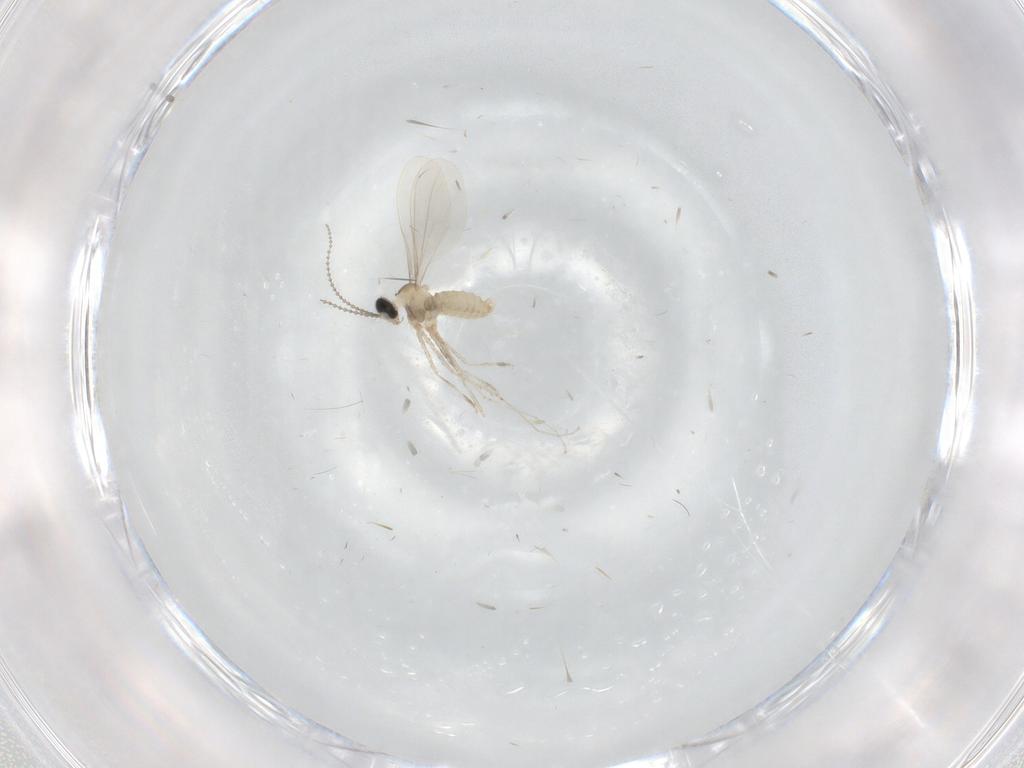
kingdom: Animalia
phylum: Arthropoda
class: Insecta
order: Diptera
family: Cecidomyiidae
